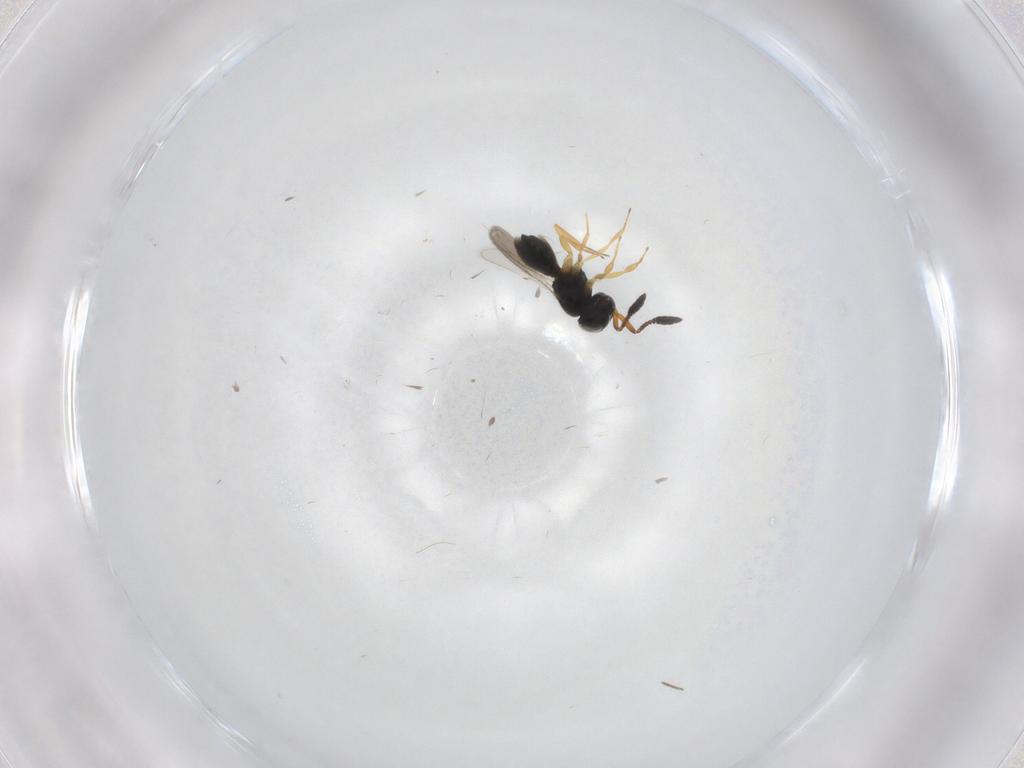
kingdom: Animalia
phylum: Arthropoda
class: Insecta
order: Hymenoptera
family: Scelionidae
